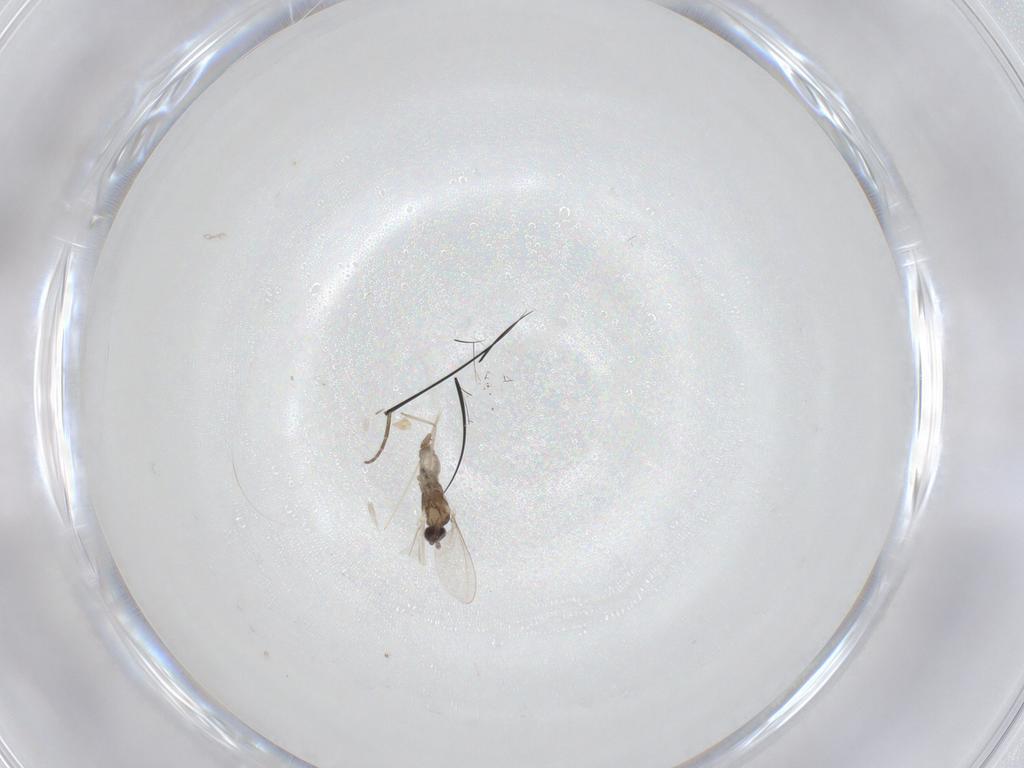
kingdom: Animalia
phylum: Arthropoda
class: Insecta
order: Diptera
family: Cecidomyiidae
